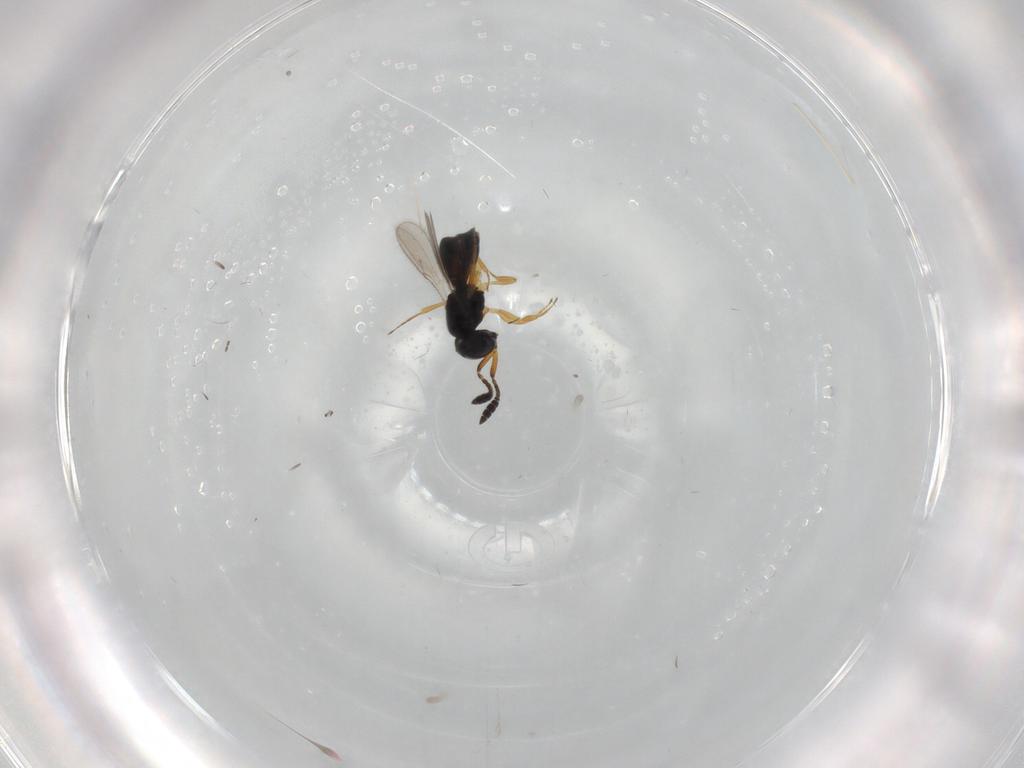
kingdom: Animalia
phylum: Arthropoda
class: Insecta
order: Hymenoptera
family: Scelionidae
